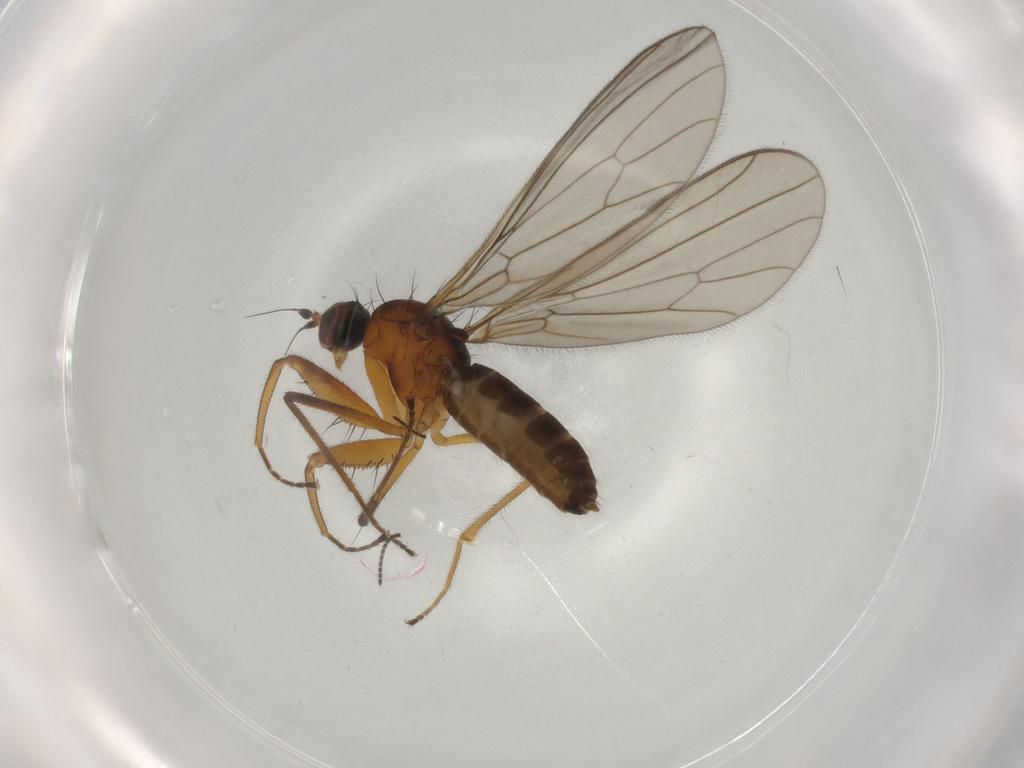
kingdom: Animalia
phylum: Arthropoda
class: Insecta
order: Diptera
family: Empididae
